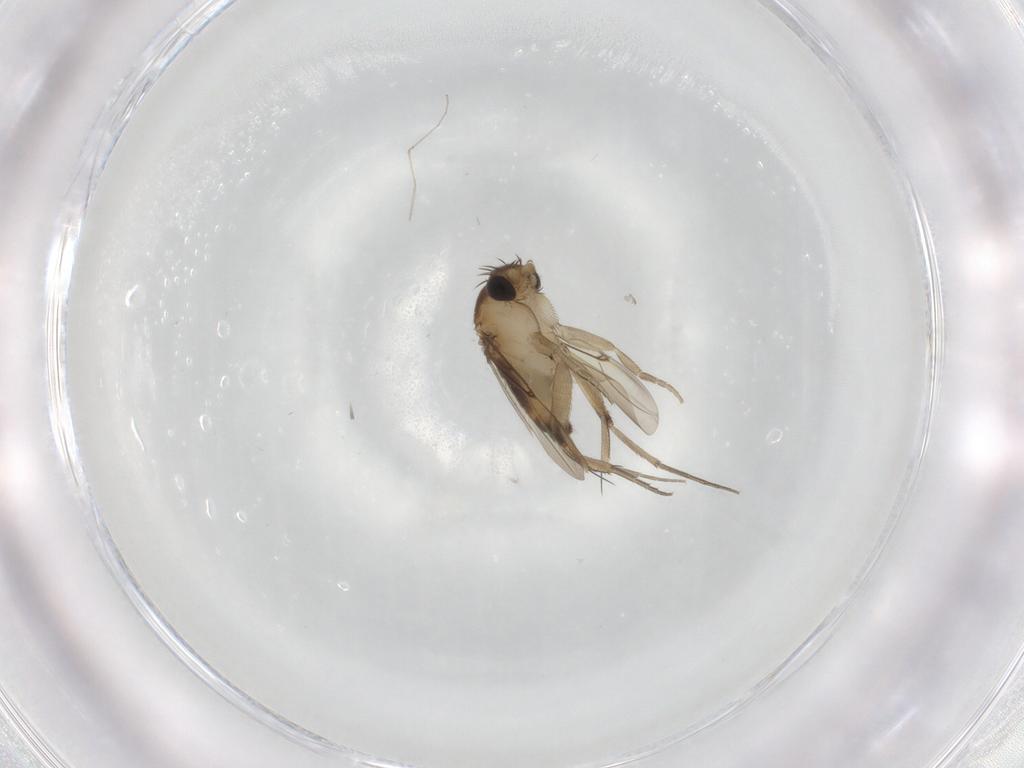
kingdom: Animalia
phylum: Arthropoda
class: Insecta
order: Diptera
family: Phoridae
